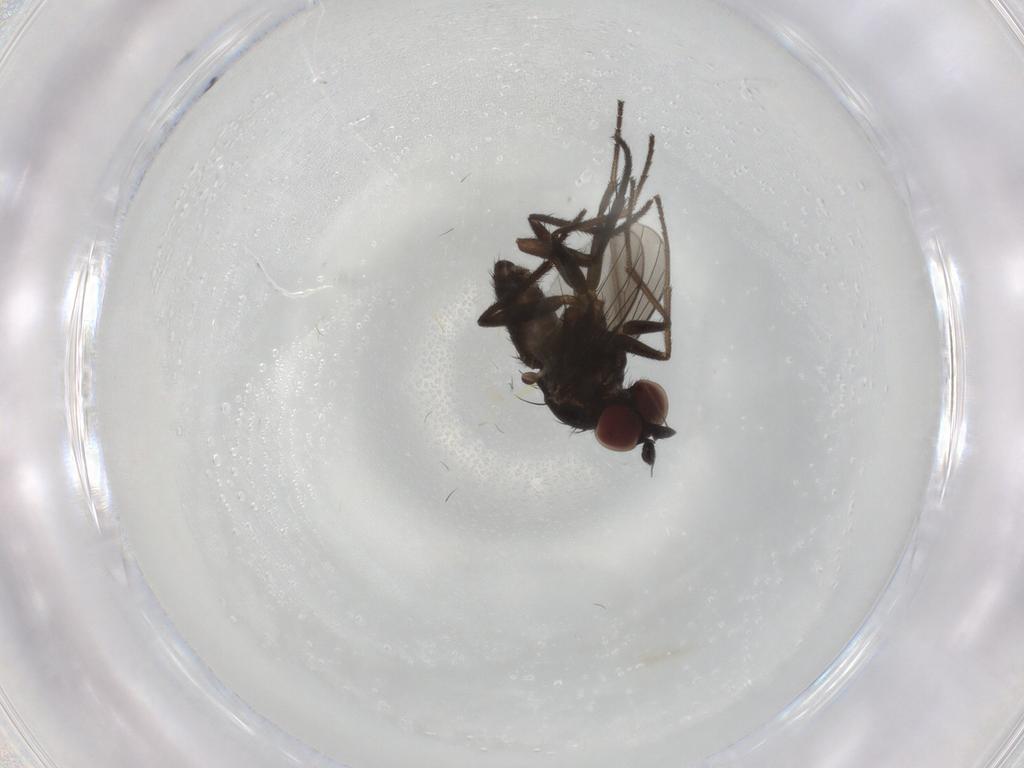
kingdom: Animalia
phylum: Arthropoda
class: Insecta
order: Diptera
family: Dolichopodidae
